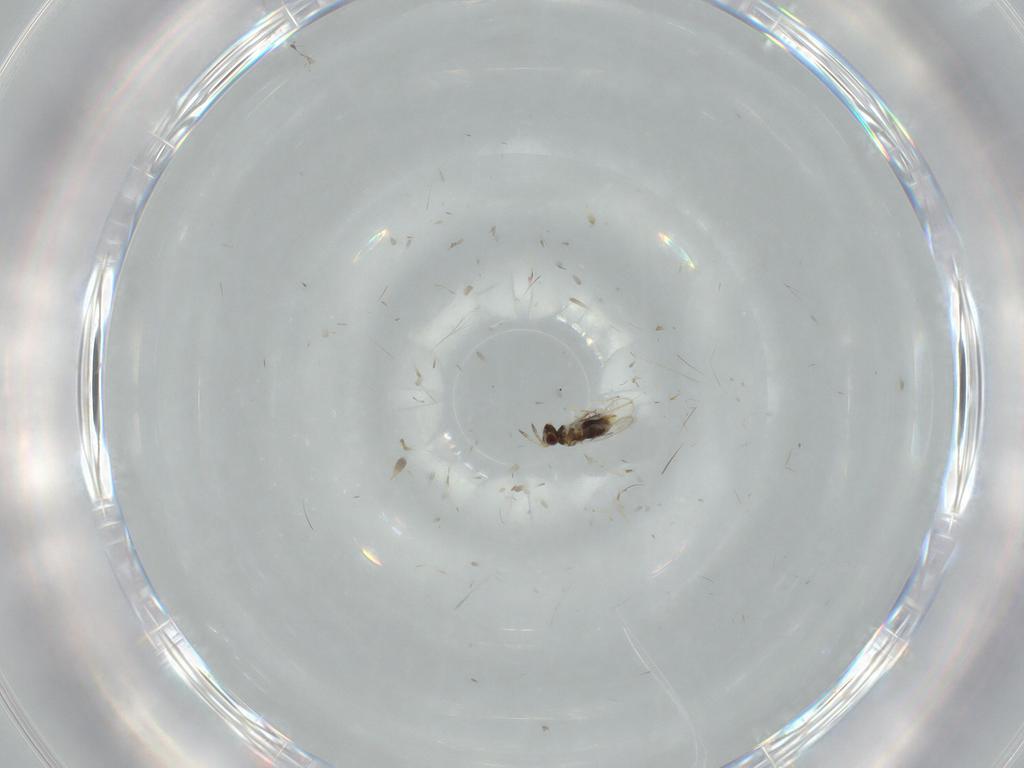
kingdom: Animalia
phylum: Arthropoda
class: Insecta
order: Hymenoptera
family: Aphelinidae
